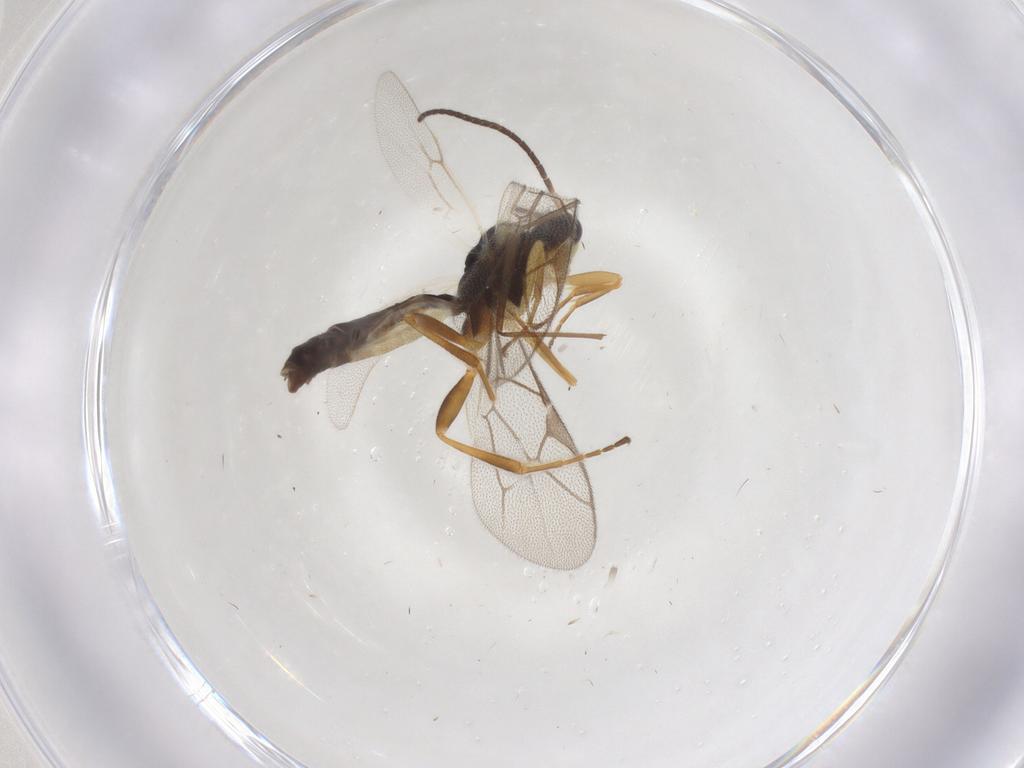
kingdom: Animalia
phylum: Arthropoda
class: Insecta
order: Hymenoptera
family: Ichneumonidae
